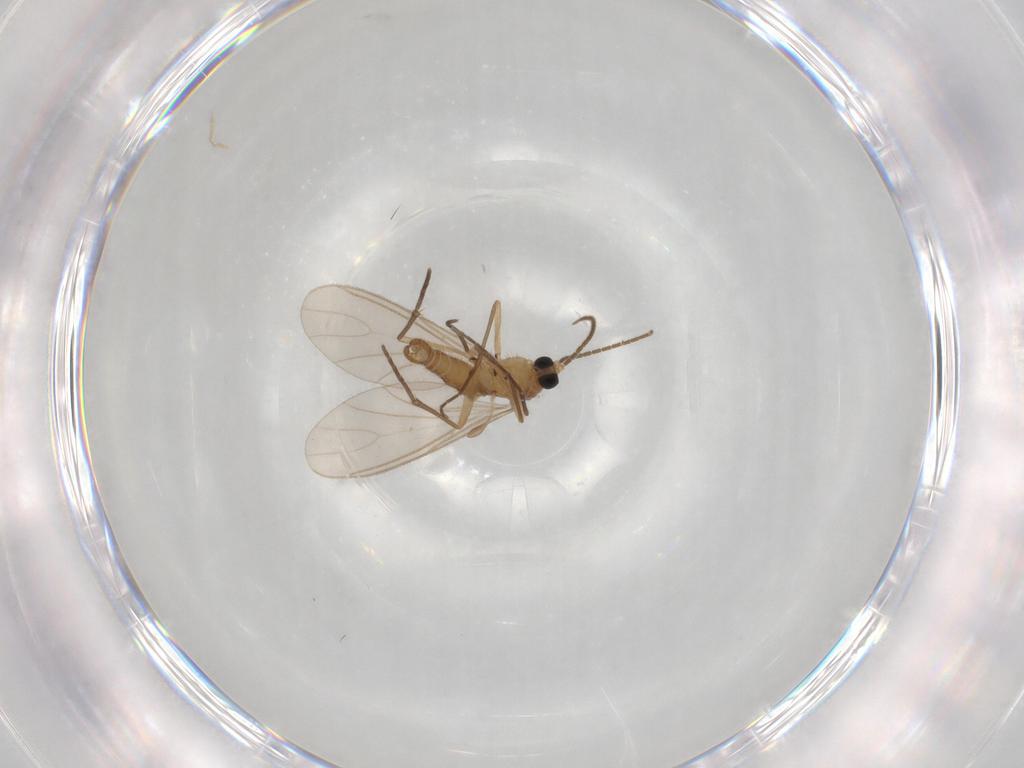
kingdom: Animalia
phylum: Arthropoda
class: Insecta
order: Diptera
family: Sciaridae
